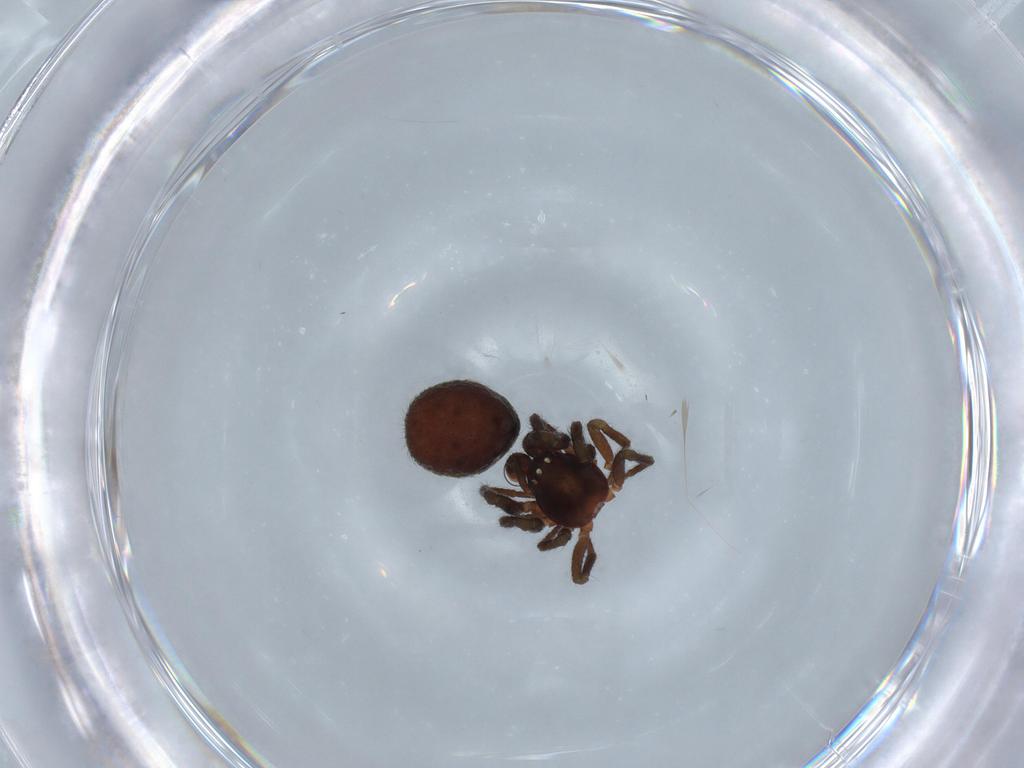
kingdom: Animalia
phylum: Arthropoda
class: Arachnida
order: Araneae
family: Theridiidae
